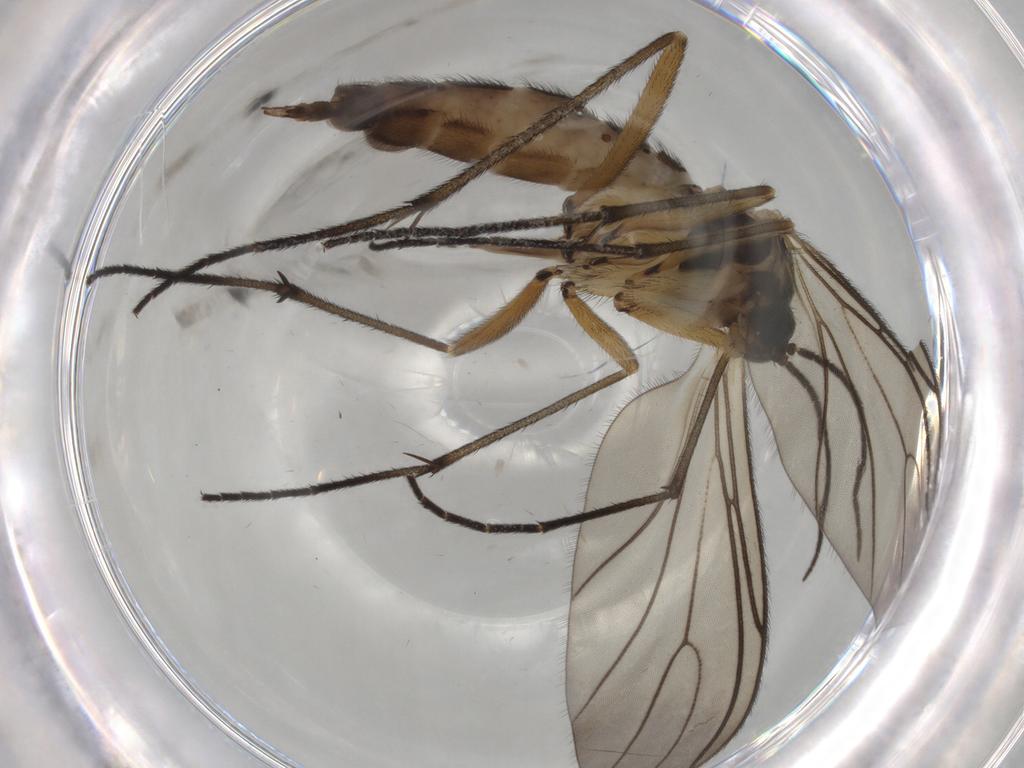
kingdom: Animalia
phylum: Arthropoda
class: Insecta
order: Diptera
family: Sciaridae
